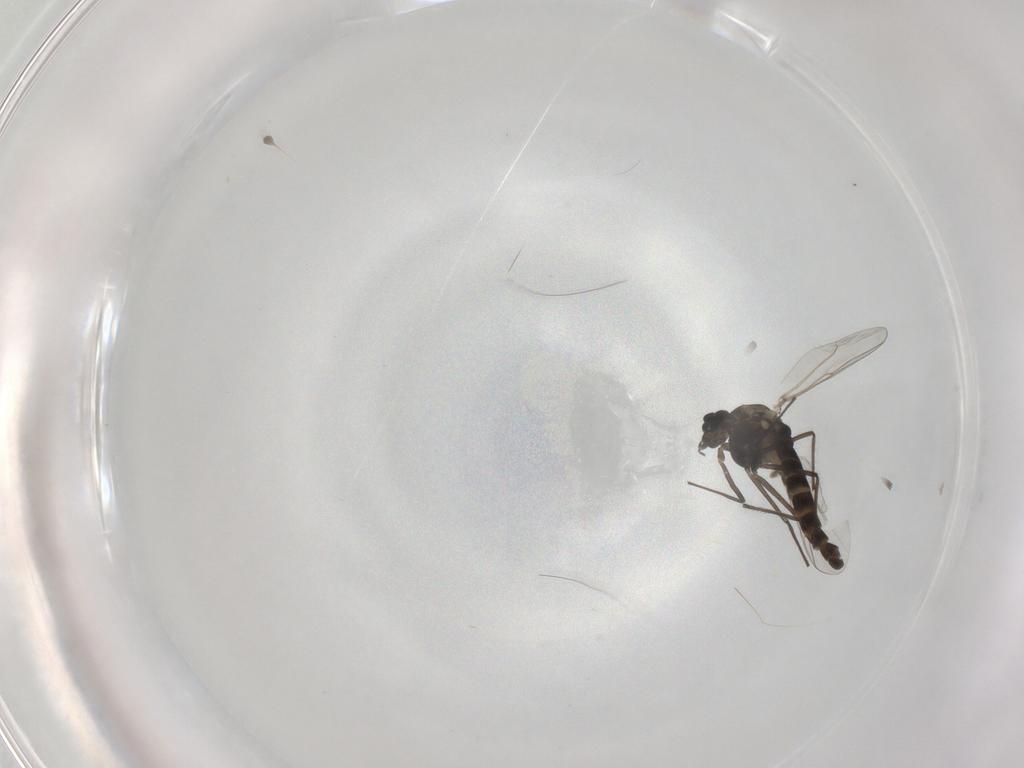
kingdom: Animalia
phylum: Arthropoda
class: Insecta
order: Diptera
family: Chironomidae
